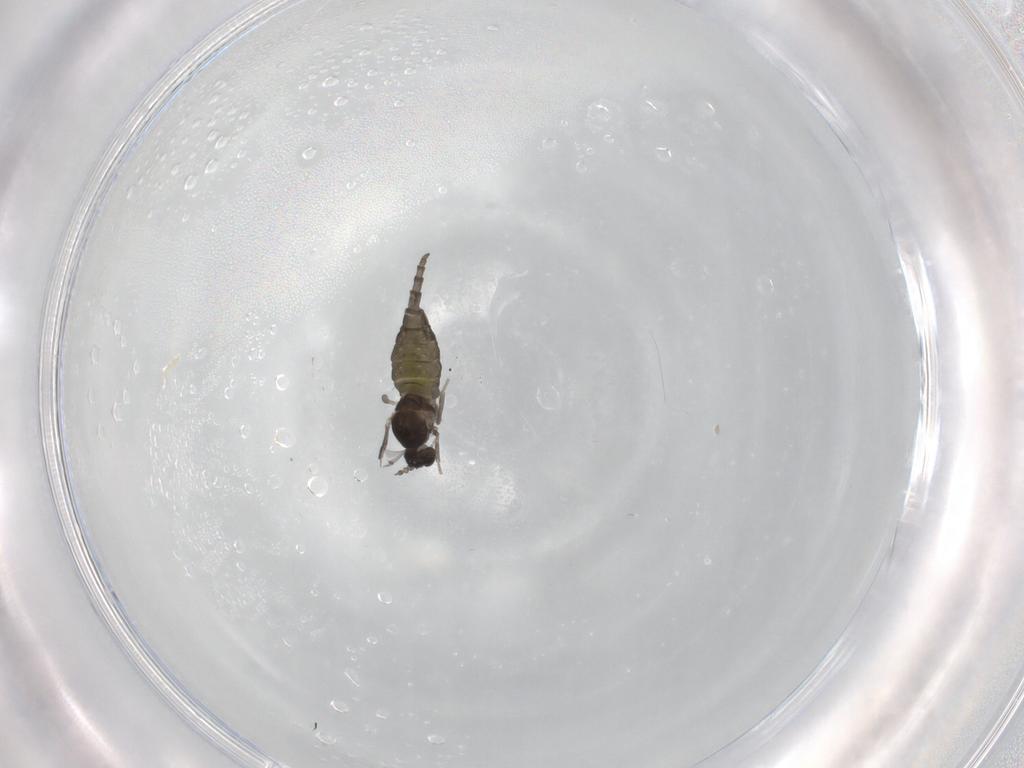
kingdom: Animalia
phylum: Arthropoda
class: Insecta
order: Diptera
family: Cecidomyiidae
